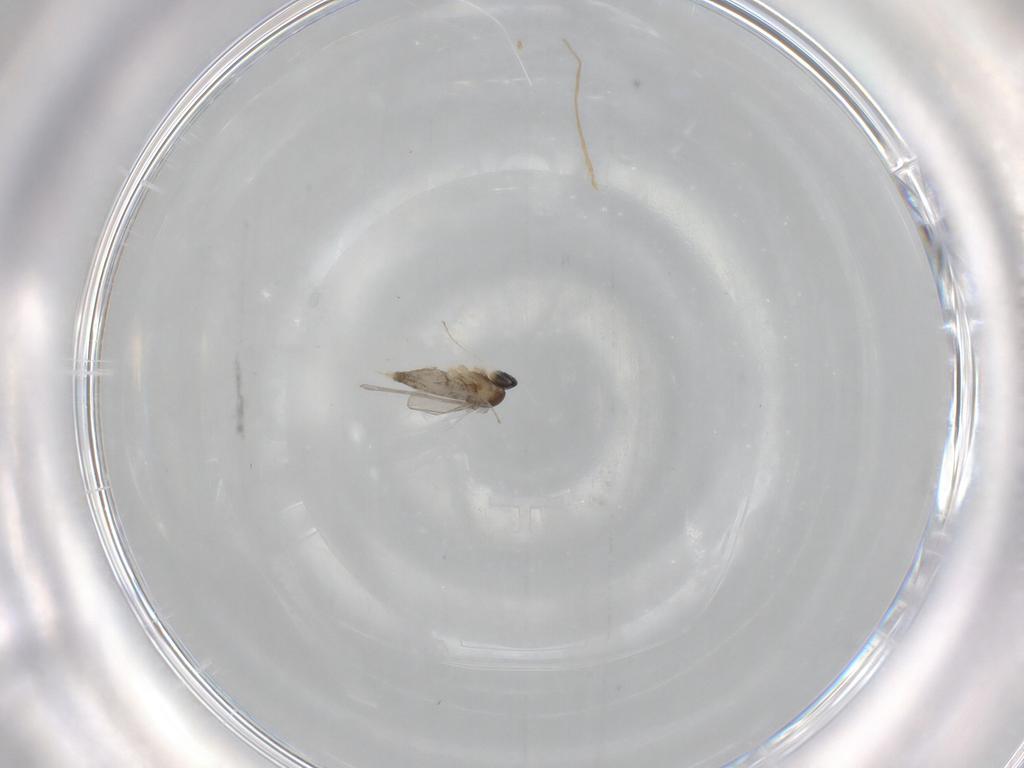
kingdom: Animalia
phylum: Arthropoda
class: Insecta
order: Diptera
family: Cecidomyiidae
